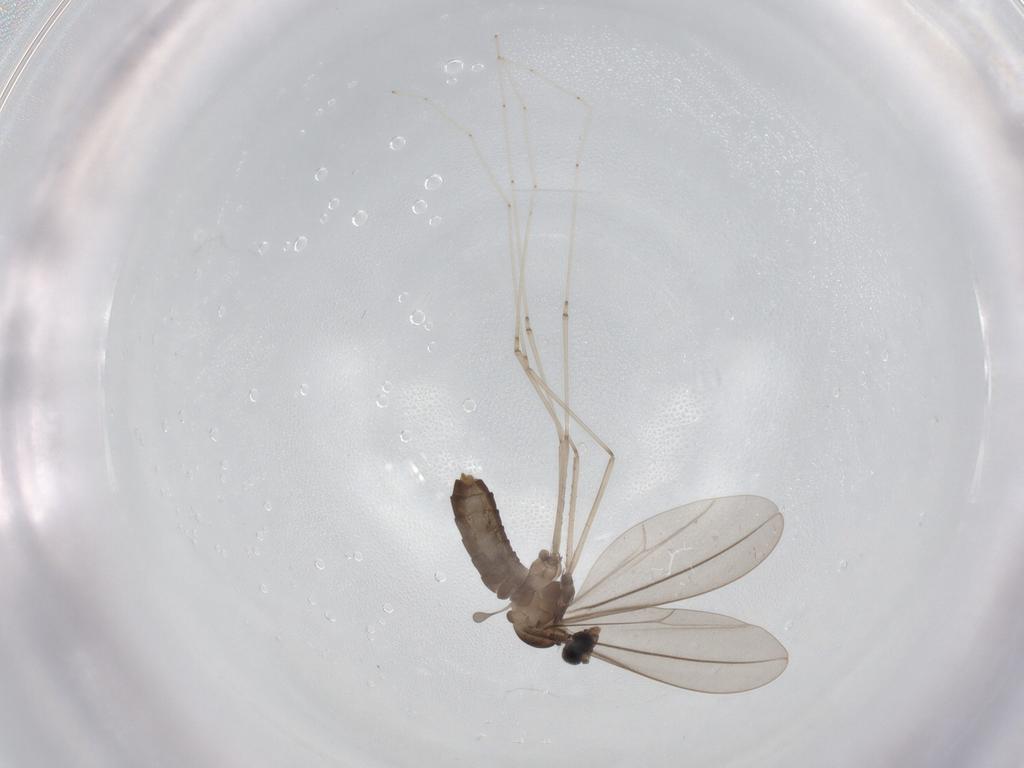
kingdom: Animalia
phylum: Arthropoda
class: Insecta
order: Diptera
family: Cecidomyiidae
